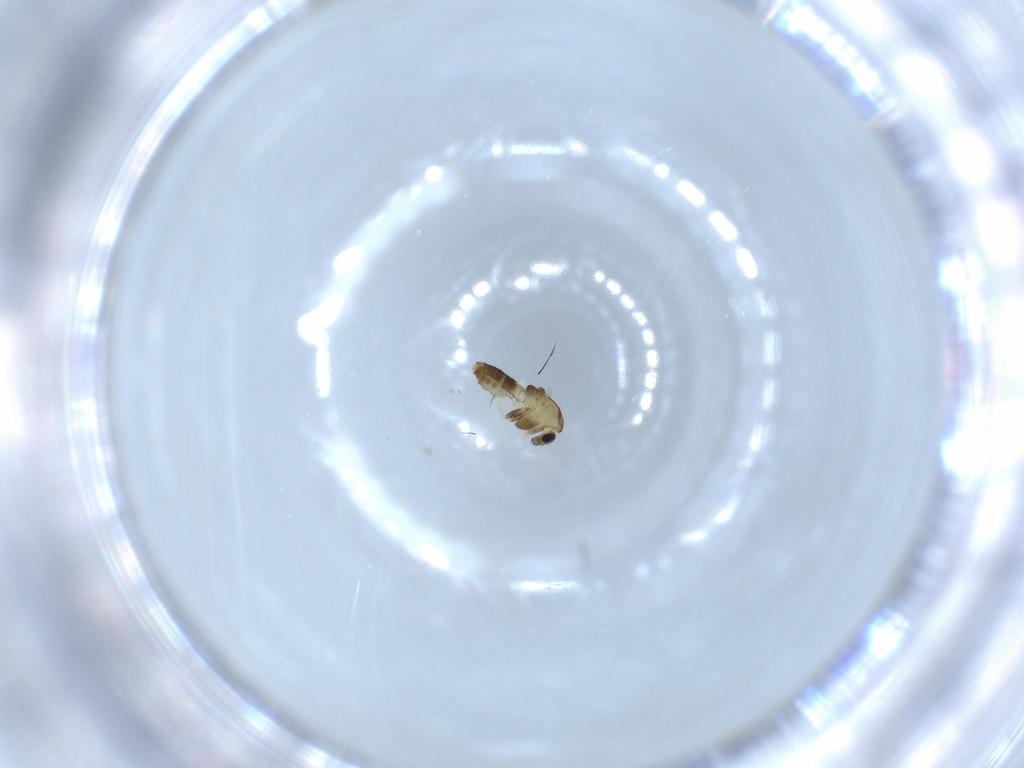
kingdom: Animalia
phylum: Arthropoda
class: Insecta
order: Diptera
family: Chironomidae
